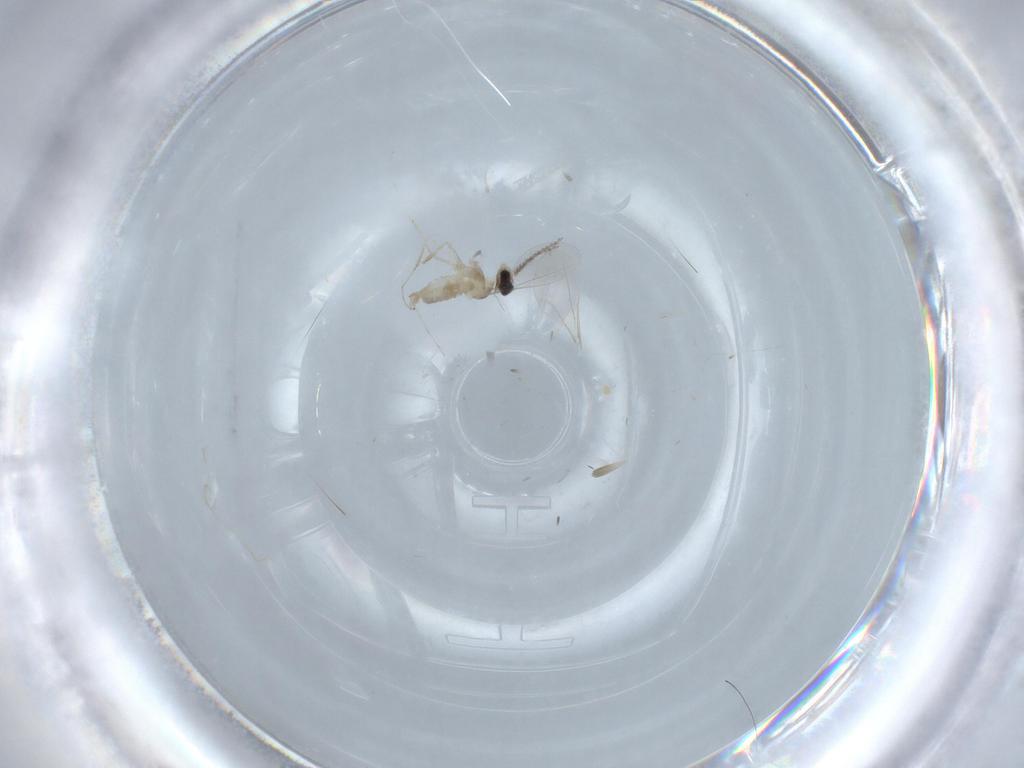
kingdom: Animalia
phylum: Arthropoda
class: Insecta
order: Diptera
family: Cecidomyiidae
